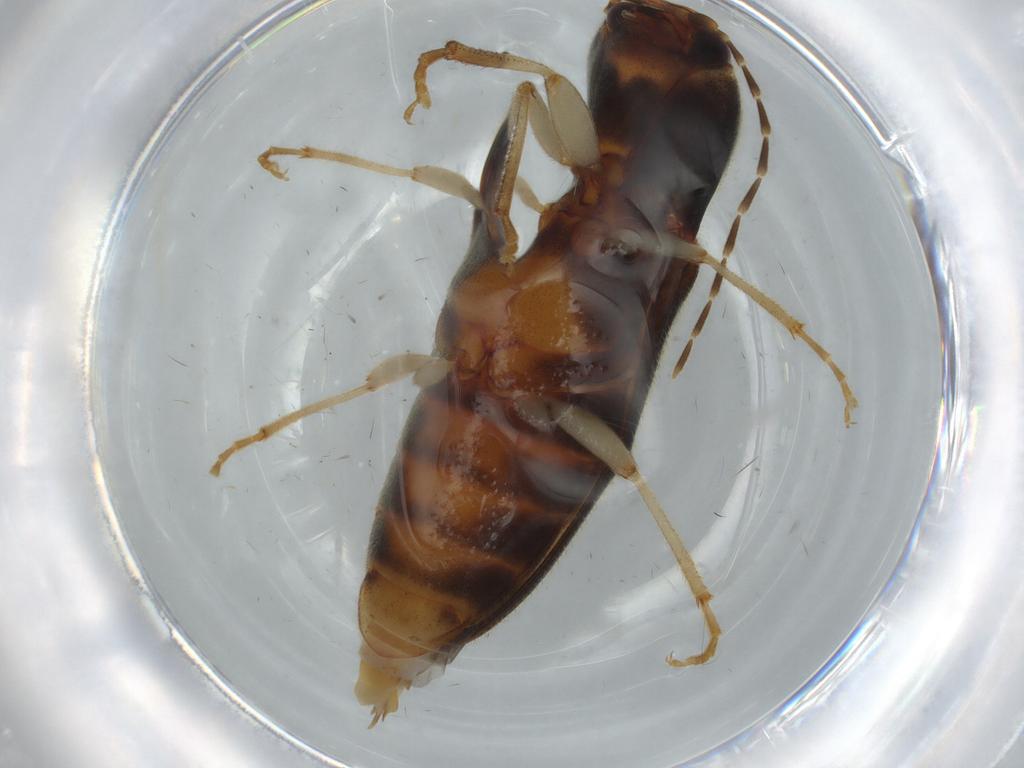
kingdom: Animalia
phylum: Arthropoda
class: Insecta
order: Coleoptera
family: Elateridae
